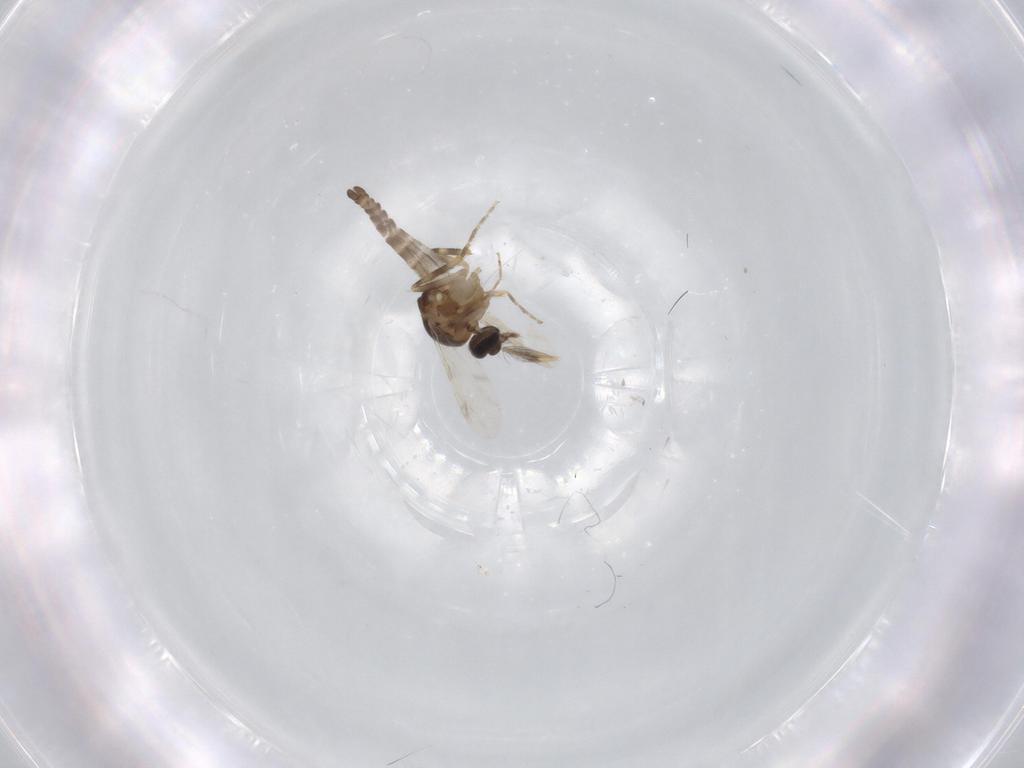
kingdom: Animalia
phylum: Arthropoda
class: Insecta
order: Diptera
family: Ceratopogonidae
